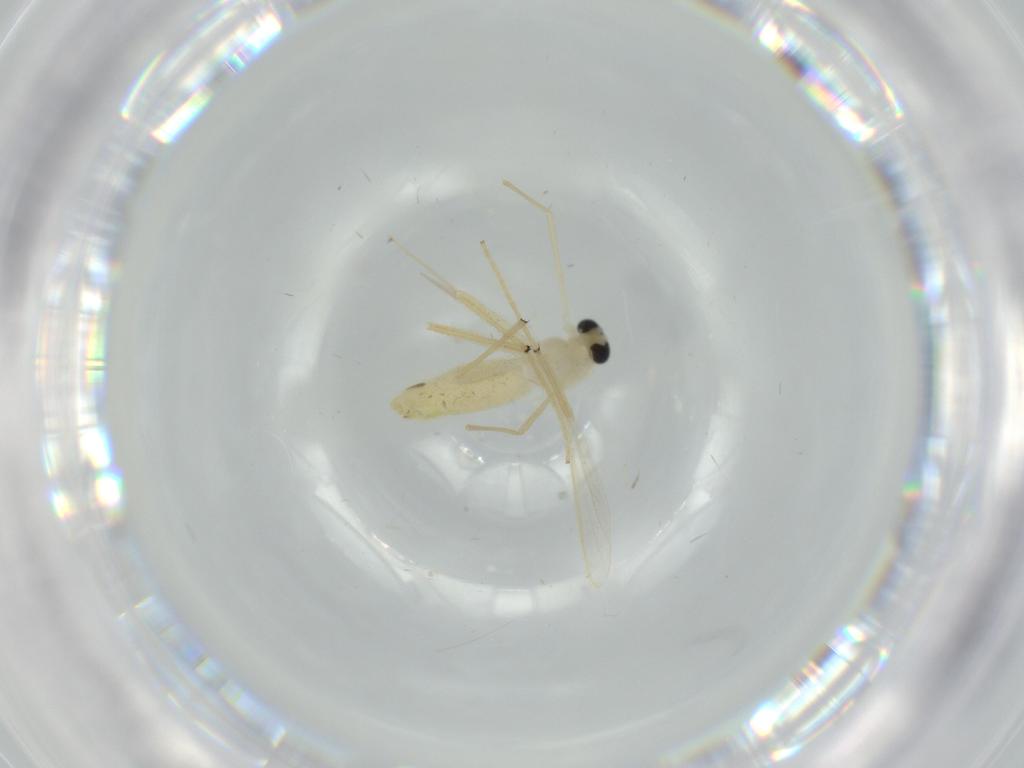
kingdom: Animalia
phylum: Arthropoda
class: Insecta
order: Diptera
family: Chironomidae
